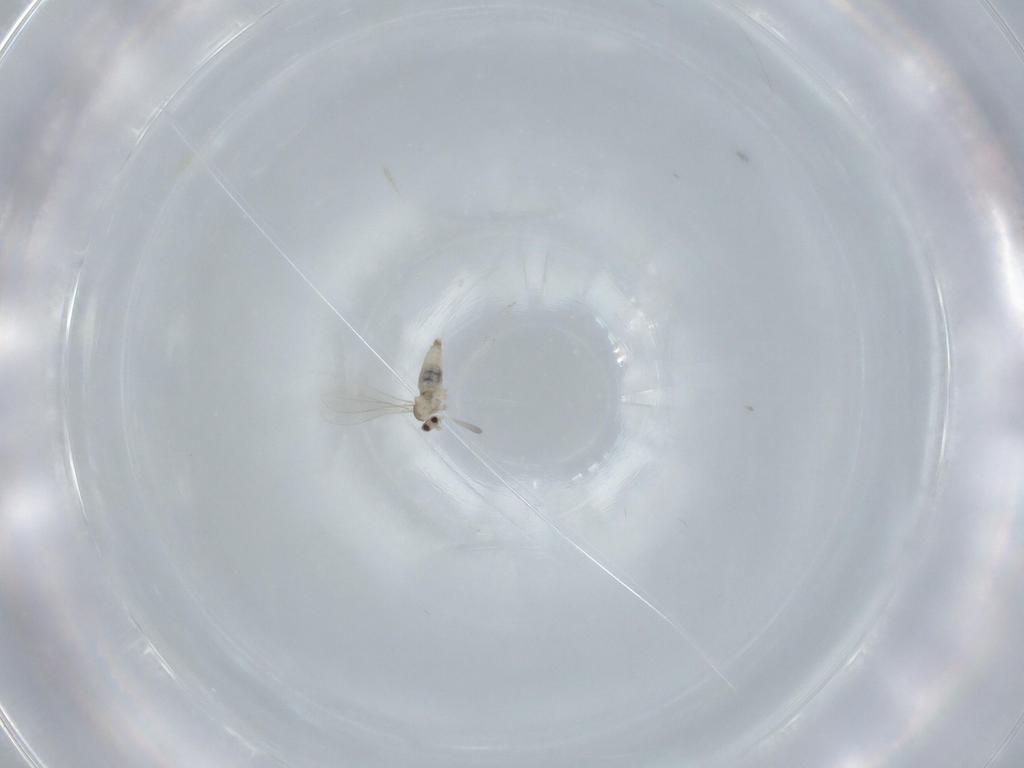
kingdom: Animalia
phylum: Arthropoda
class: Insecta
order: Diptera
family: Cecidomyiidae
